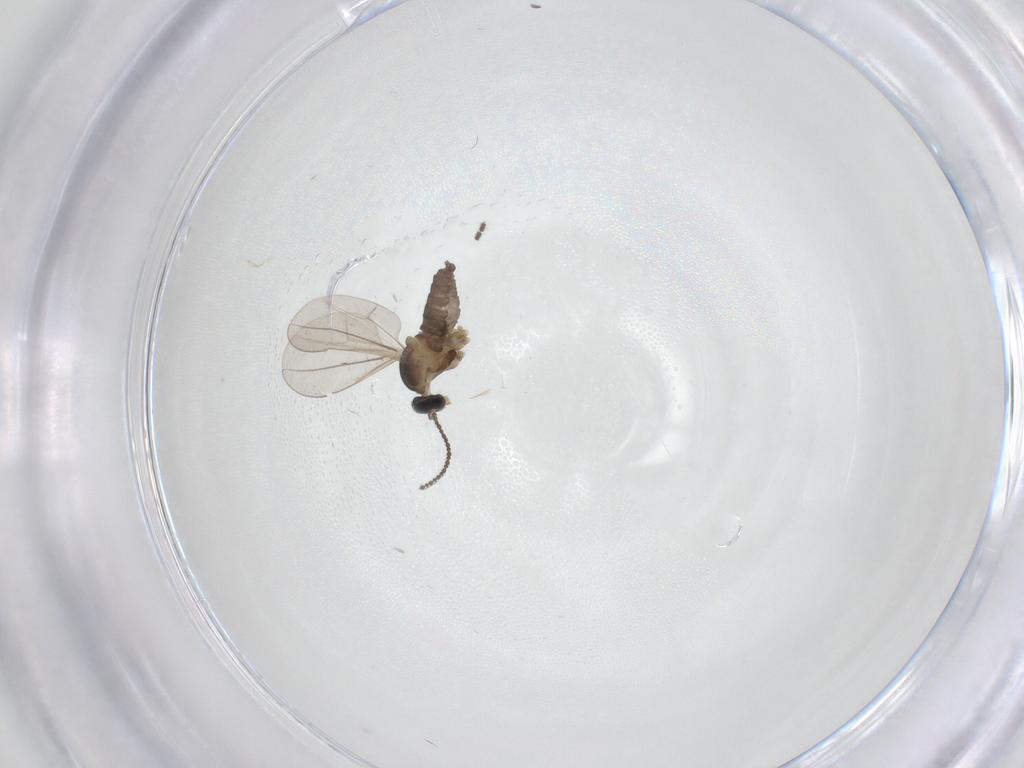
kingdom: Animalia
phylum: Arthropoda
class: Insecta
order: Diptera
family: Cecidomyiidae
